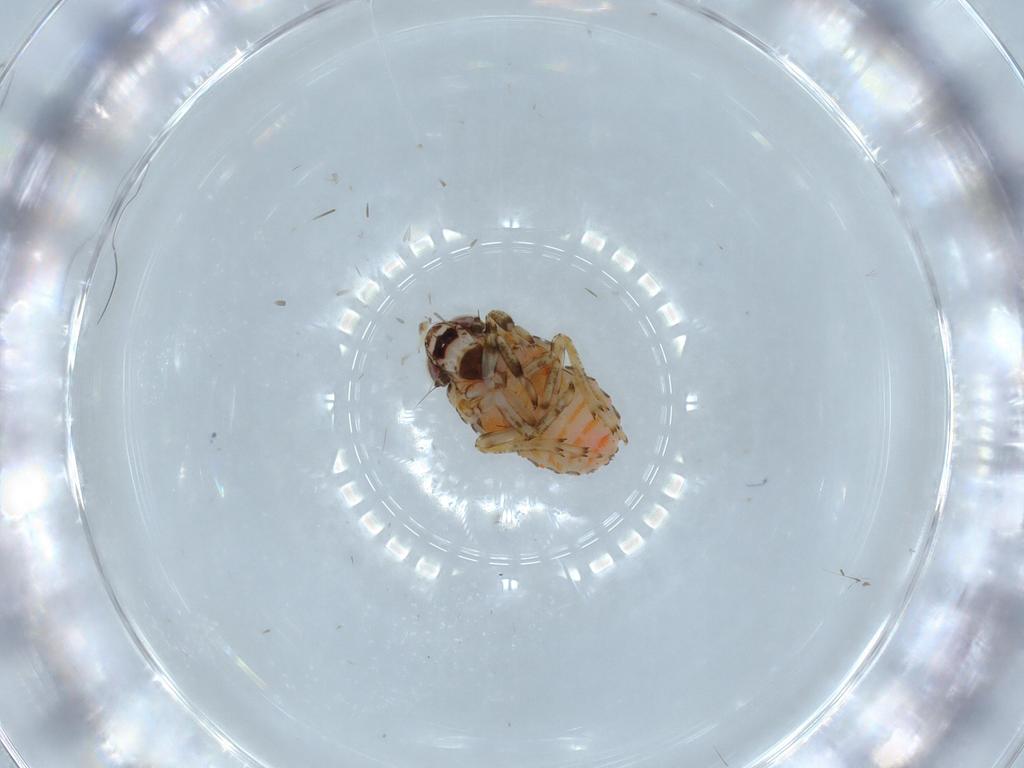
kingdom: Animalia
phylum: Arthropoda
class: Insecta
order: Hemiptera
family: Issidae
